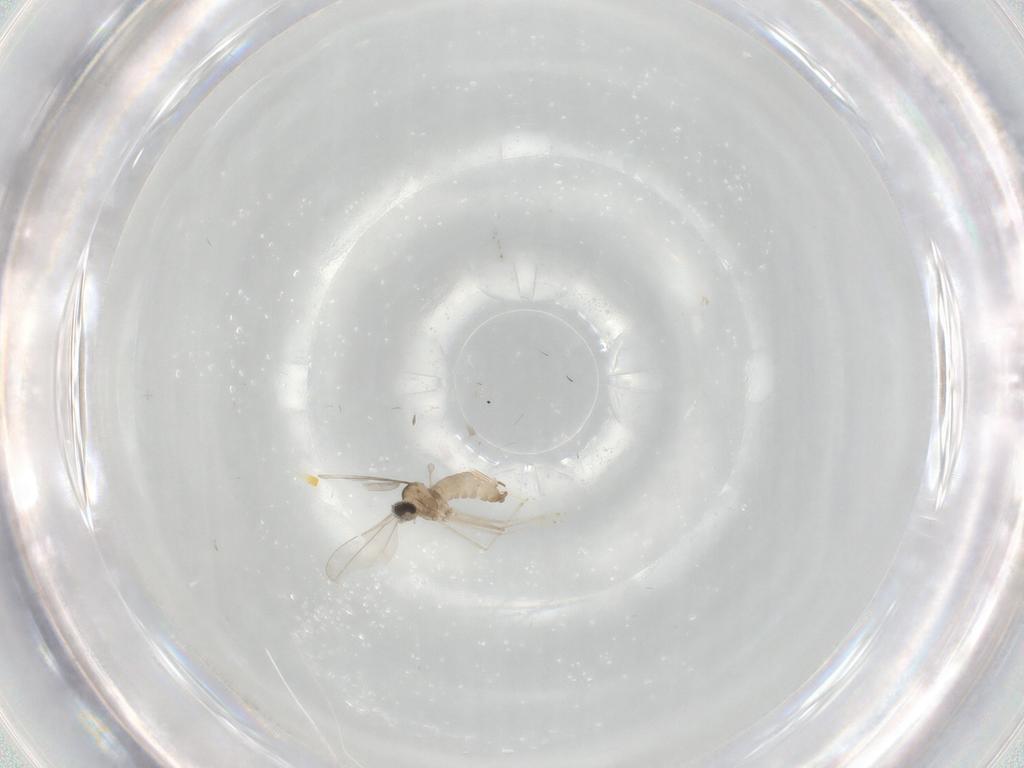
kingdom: Animalia
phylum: Arthropoda
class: Insecta
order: Diptera
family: Cecidomyiidae
